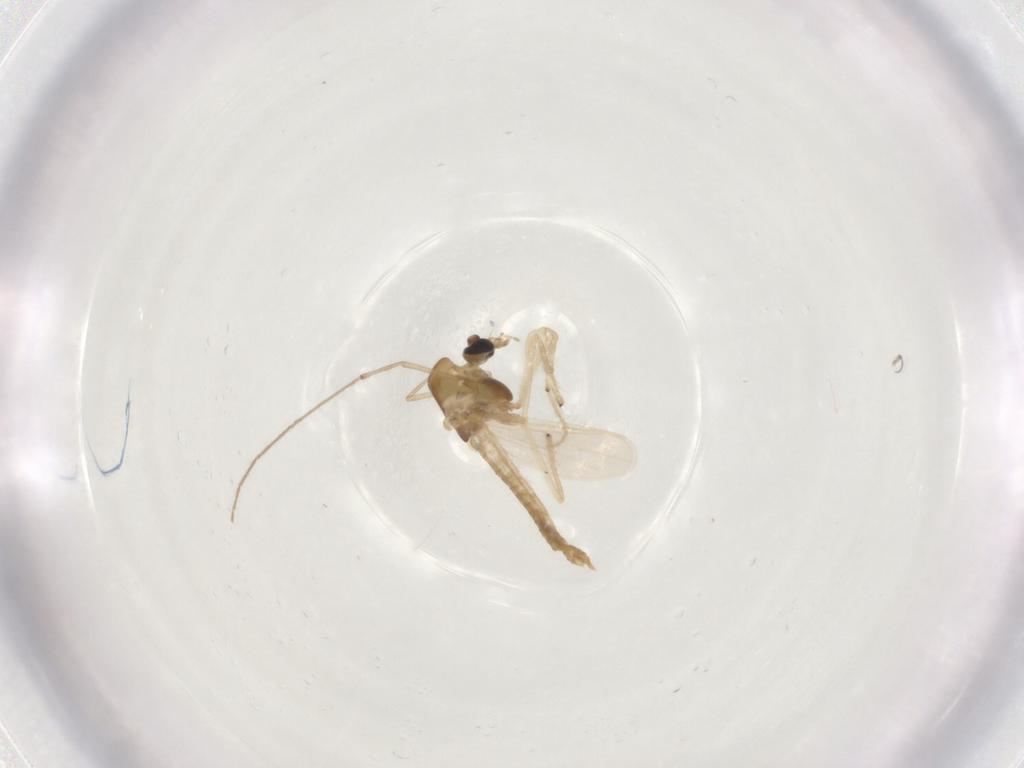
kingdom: Animalia
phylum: Arthropoda
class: Insecta
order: Diptera
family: Chironomidae
